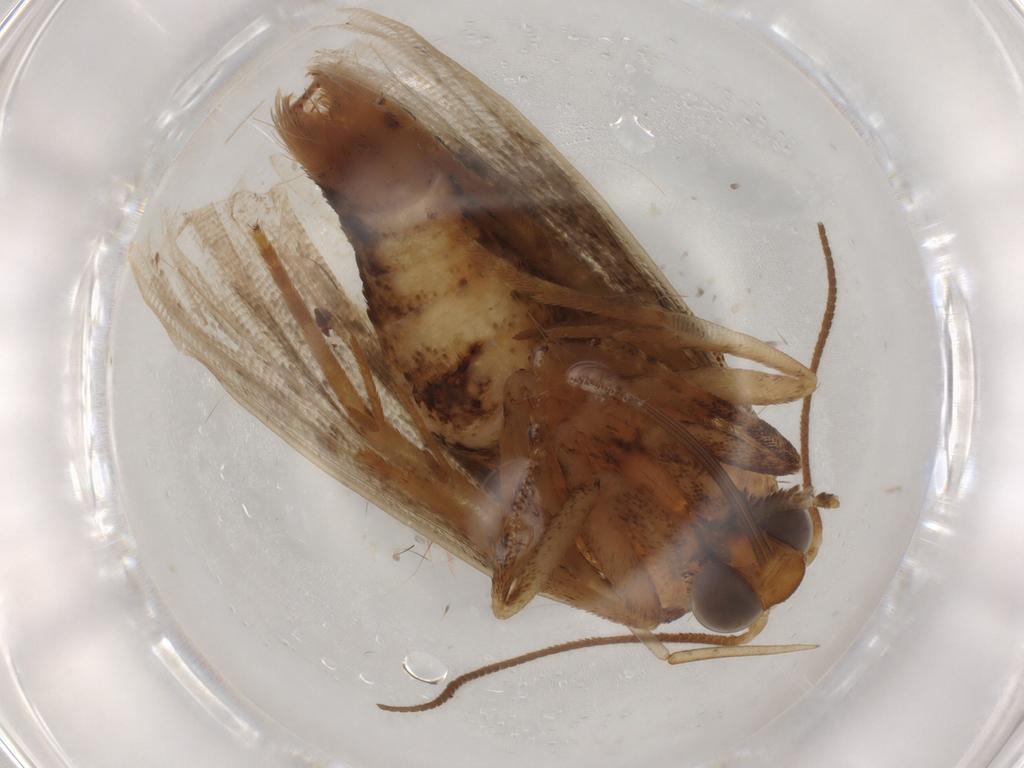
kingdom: Animalia
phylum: Arthropoda
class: Insecta
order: Lepidoptera
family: Erebidae
